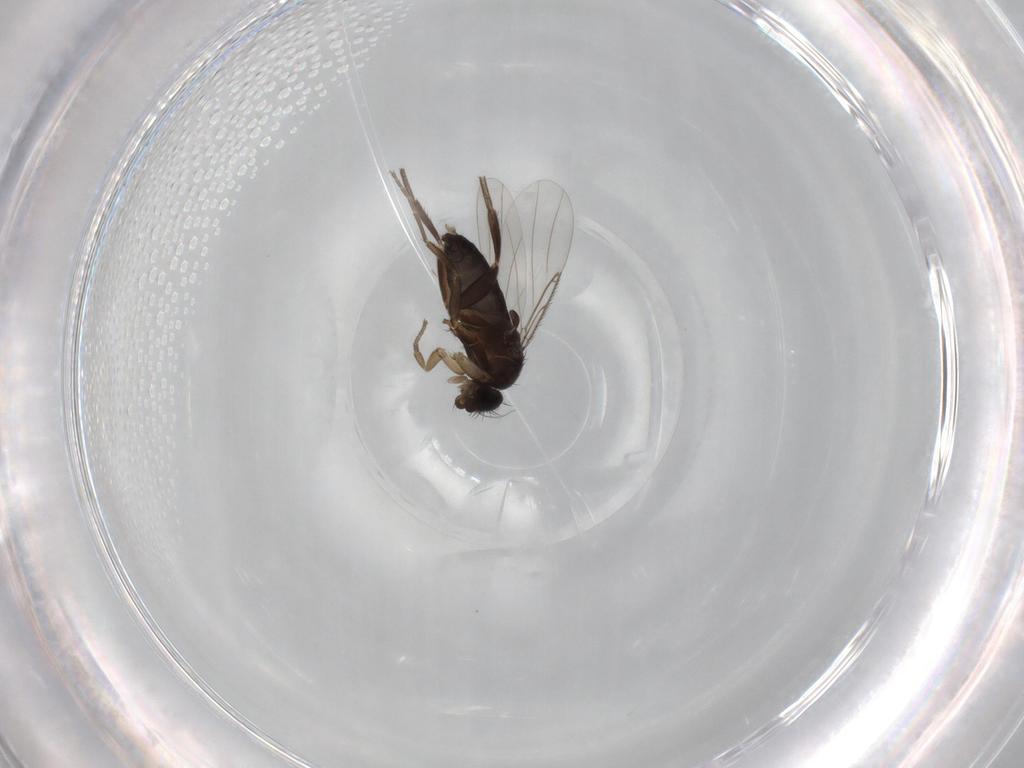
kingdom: Animalia
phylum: Arthropoda
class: Insecta
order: Diptera
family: Phoridae
